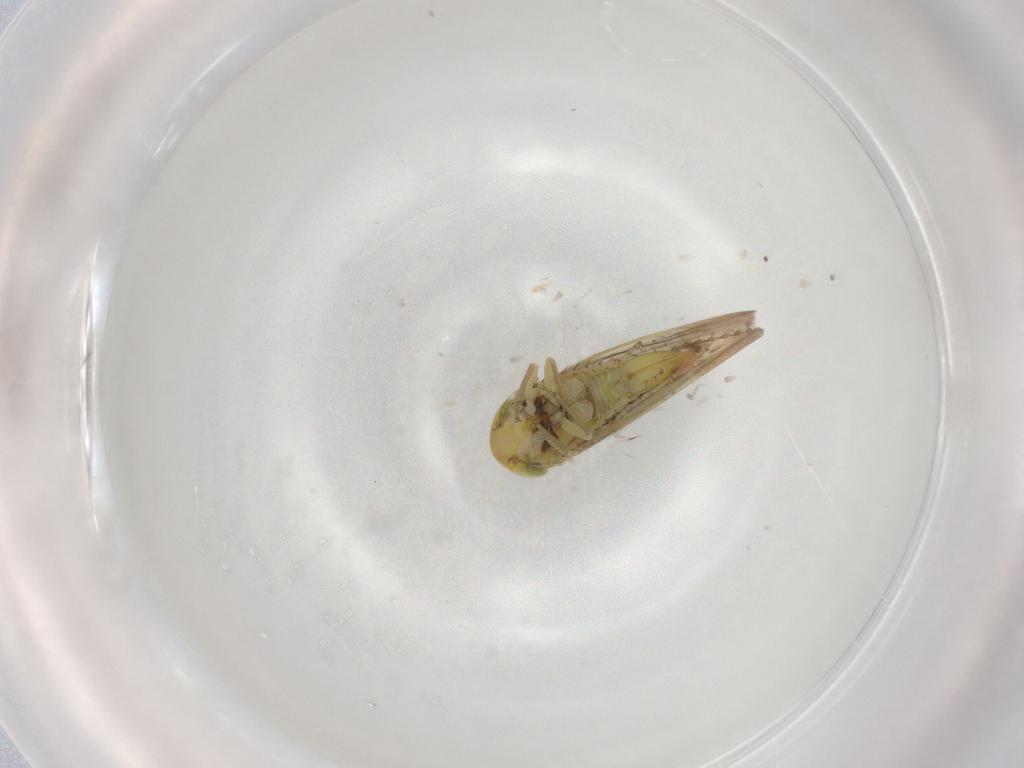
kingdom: Animalia
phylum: Arthropoda
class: Insecta
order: Hemiptera
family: Cicadellidae
